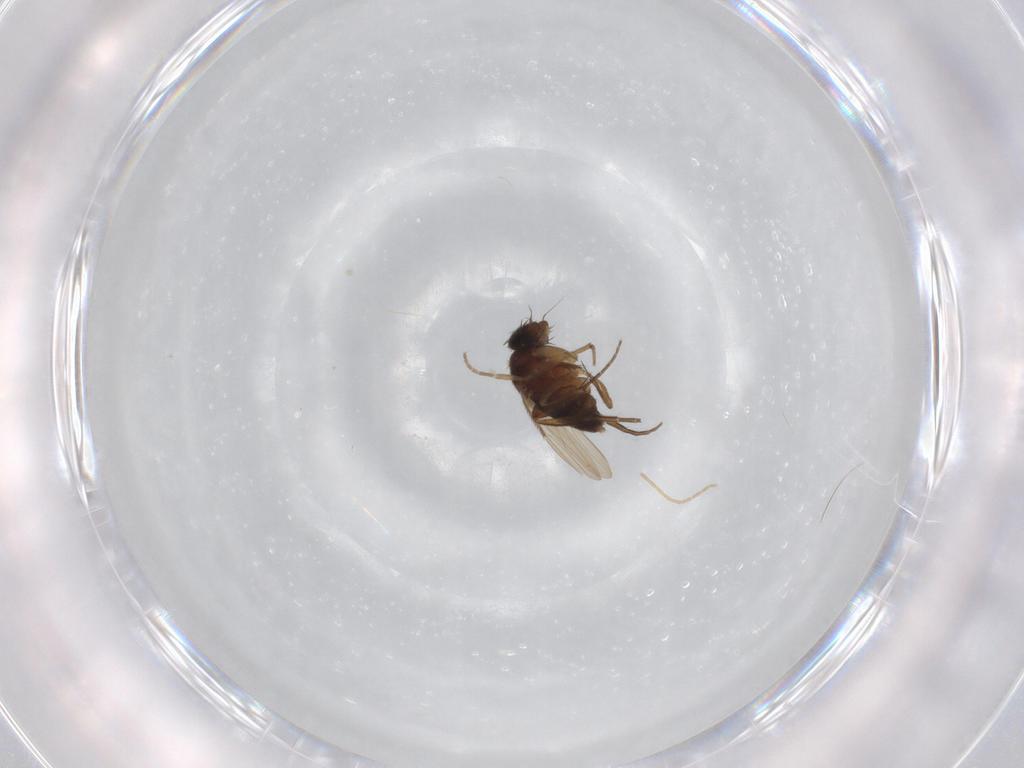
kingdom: Animalia
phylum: Arthropoda
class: Insecta
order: Diptera
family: Phoridae
